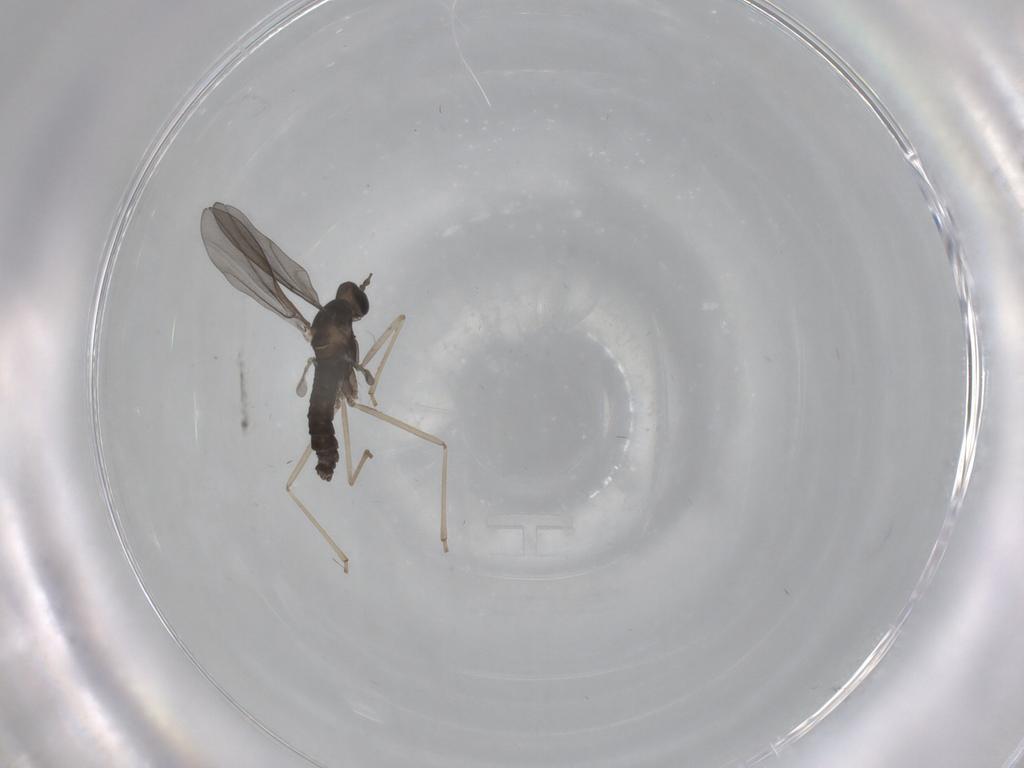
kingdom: Animalia
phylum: Arthropoda
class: Insecta
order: Diptera
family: Cecidomyiidae
